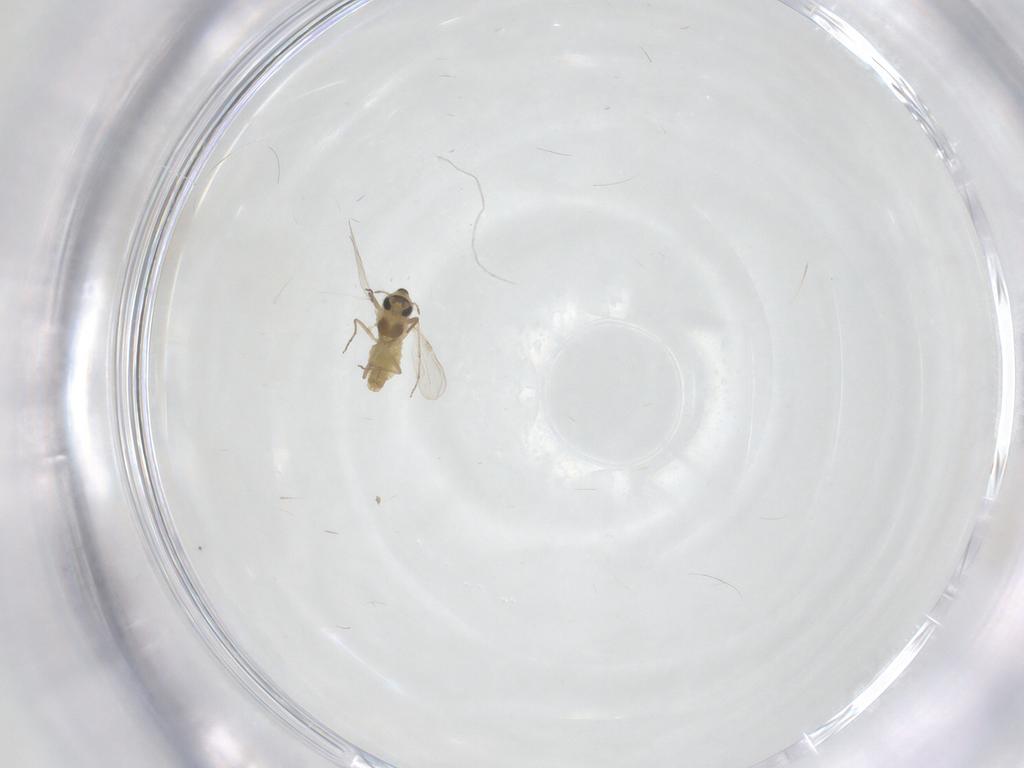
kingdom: Animalia
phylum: Arthropoda
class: Insecta
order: Diptera
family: Chironomidae
